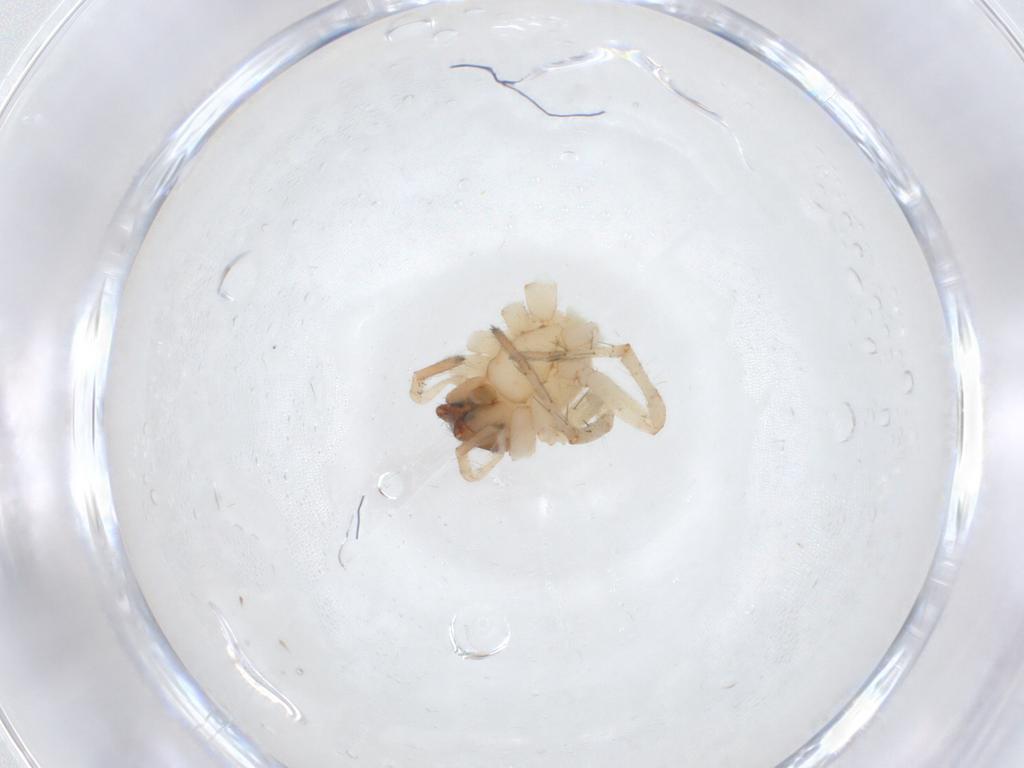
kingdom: Animalia
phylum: Arthropoda
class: Arachnida
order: Araneae
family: Anyphaenidae
